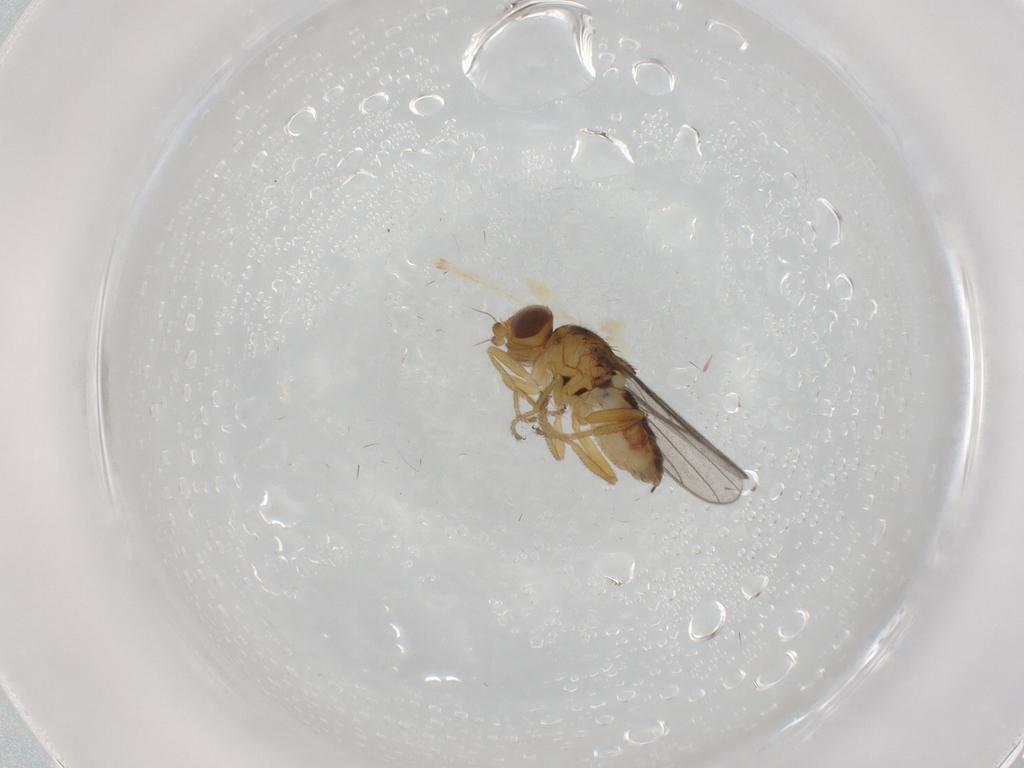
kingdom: Animalia
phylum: Arthropoda
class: Insecta
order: Diptera
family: Chloropidae
